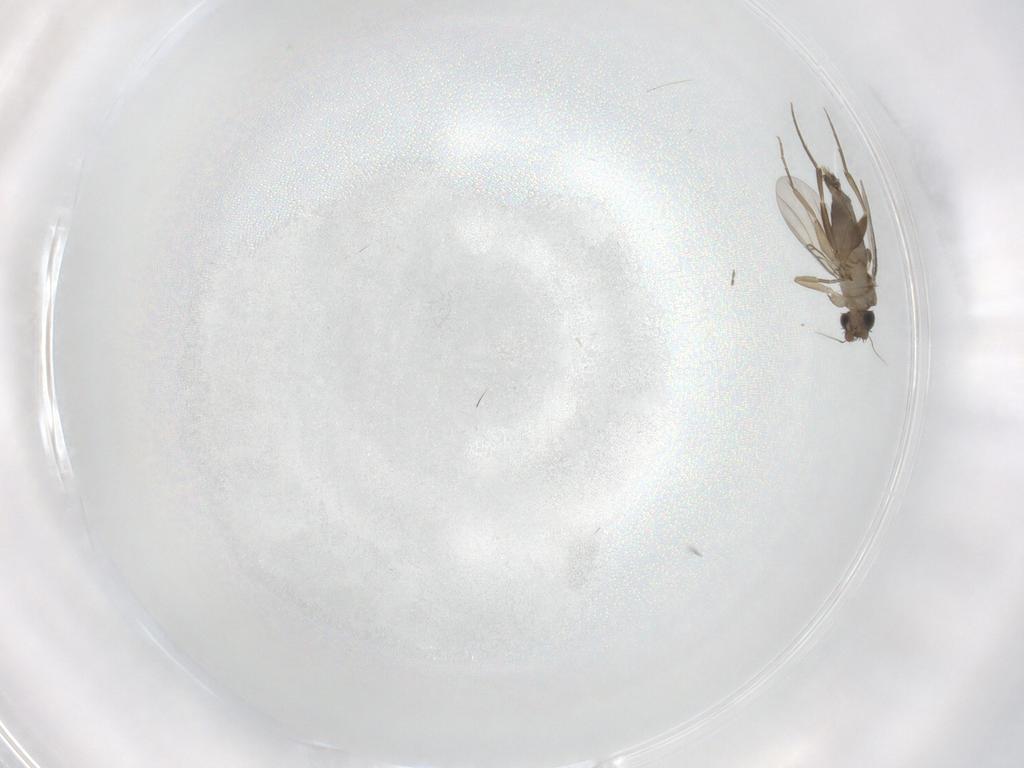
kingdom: Animalia
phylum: Arthropoda
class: Insecta
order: Diptera
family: Phoridae
